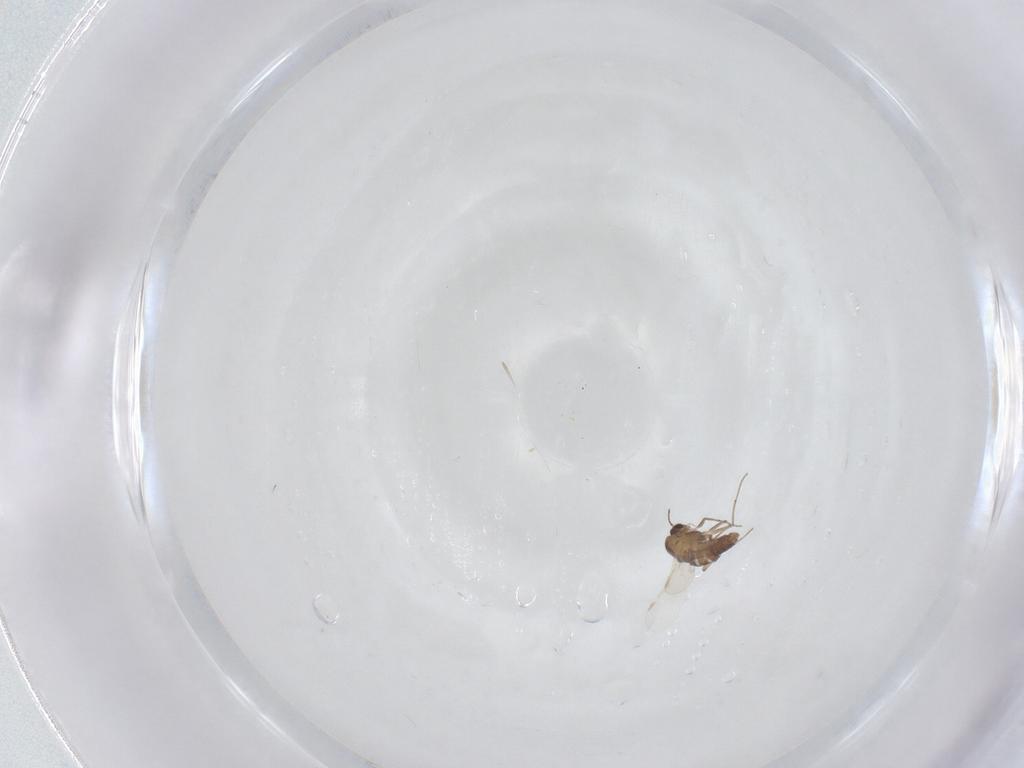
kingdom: Animalia
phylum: Arthropoda
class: Insecta
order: Diptera
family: Chironomidae
